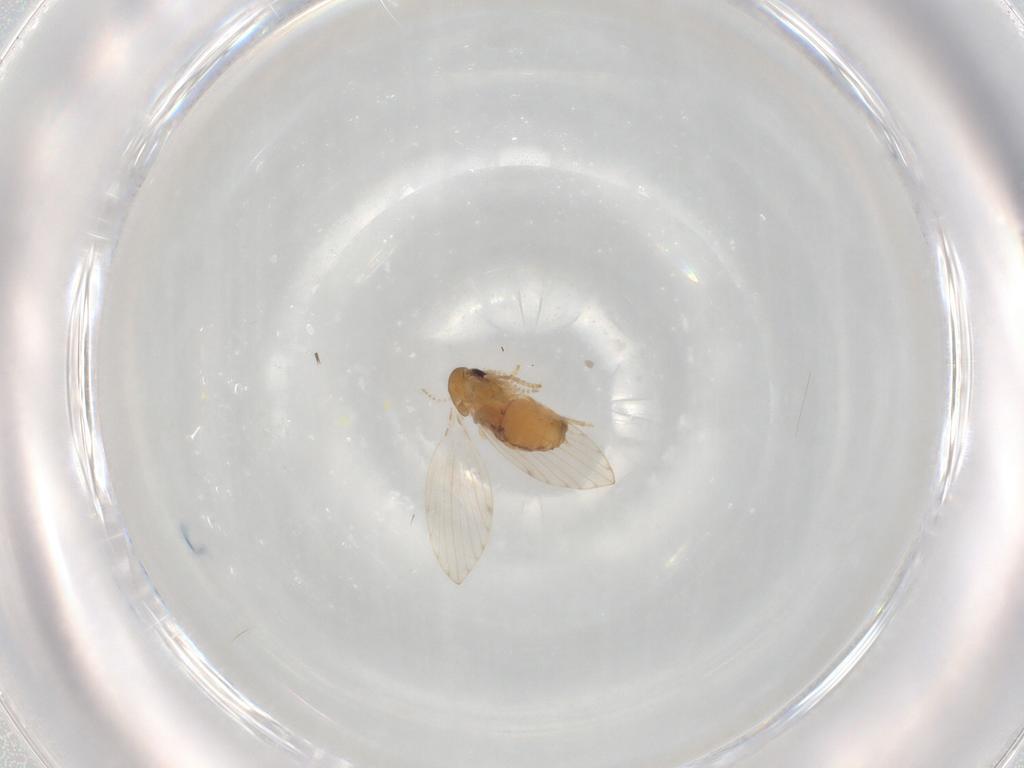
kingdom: Animalia
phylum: Arthropoda
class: Insecta
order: Diptera
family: Psychodidae
